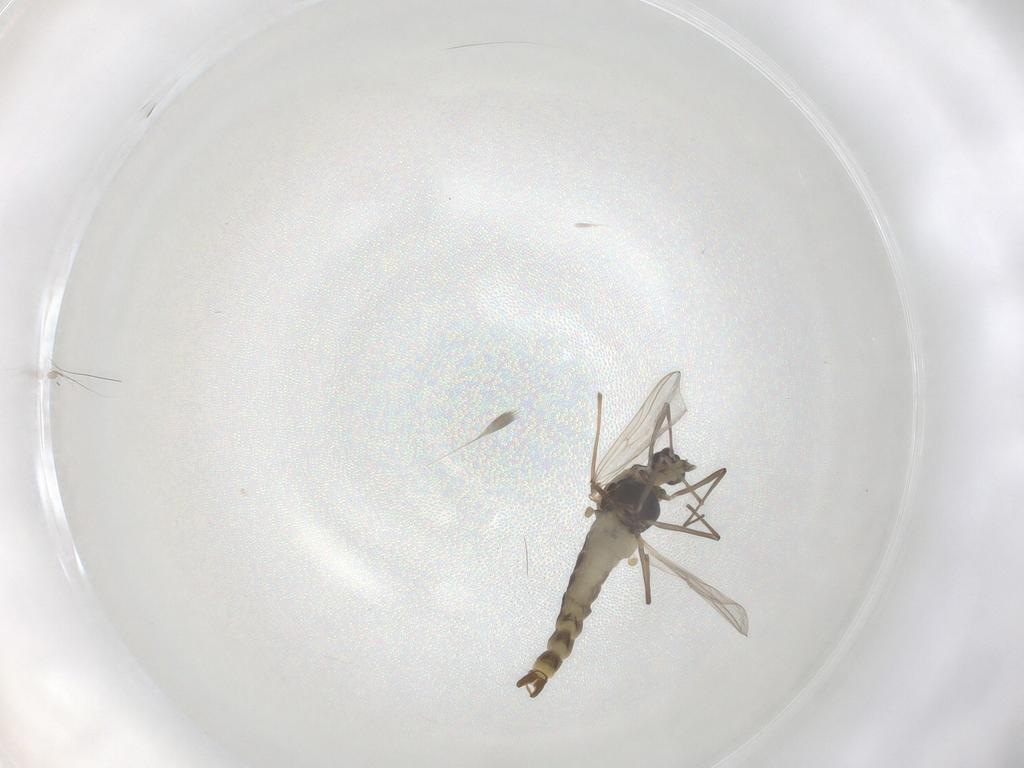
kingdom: Animalia
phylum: Arthropoda
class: Insecta
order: Diptera
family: Chironomidae
